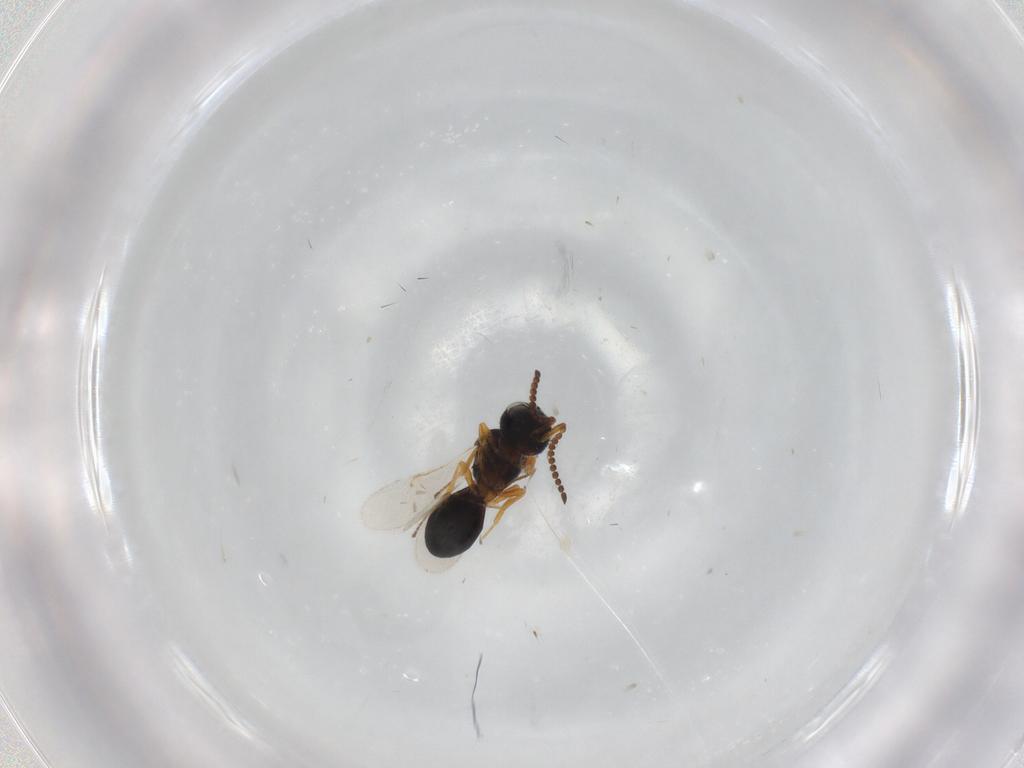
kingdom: Animalia
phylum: Arthropoda
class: Insecta
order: Hymenoptera
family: Scelionidae
